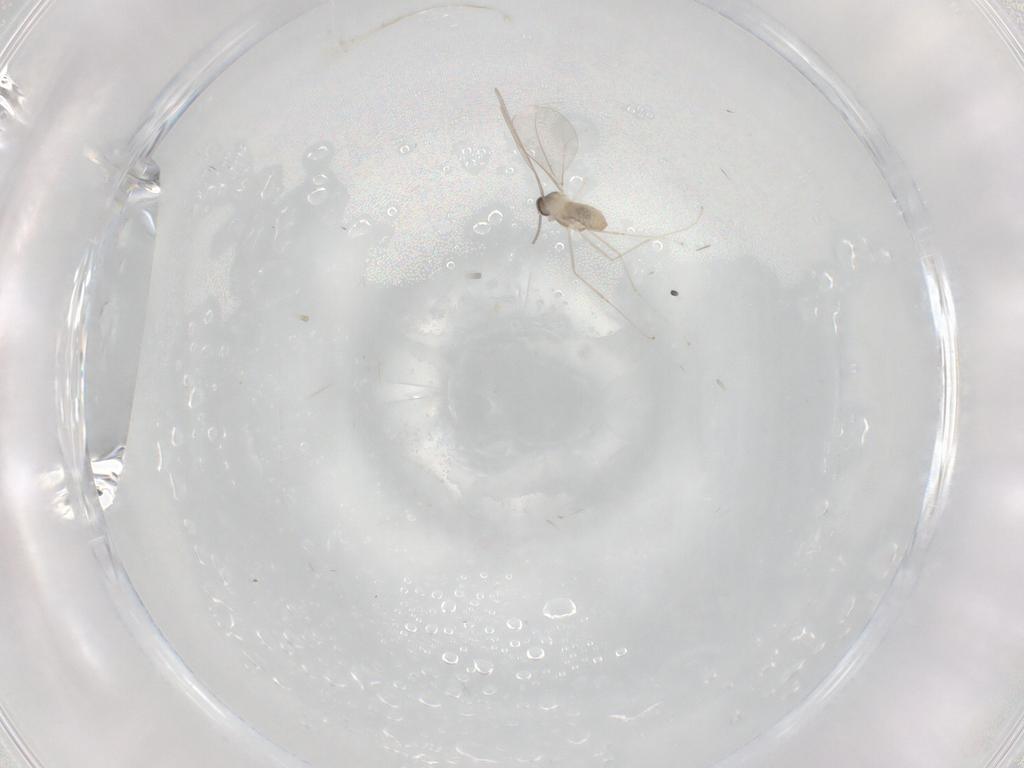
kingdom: Animalia
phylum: Arthropoda
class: Insecta
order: Diptera
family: Cecidomyiidae
